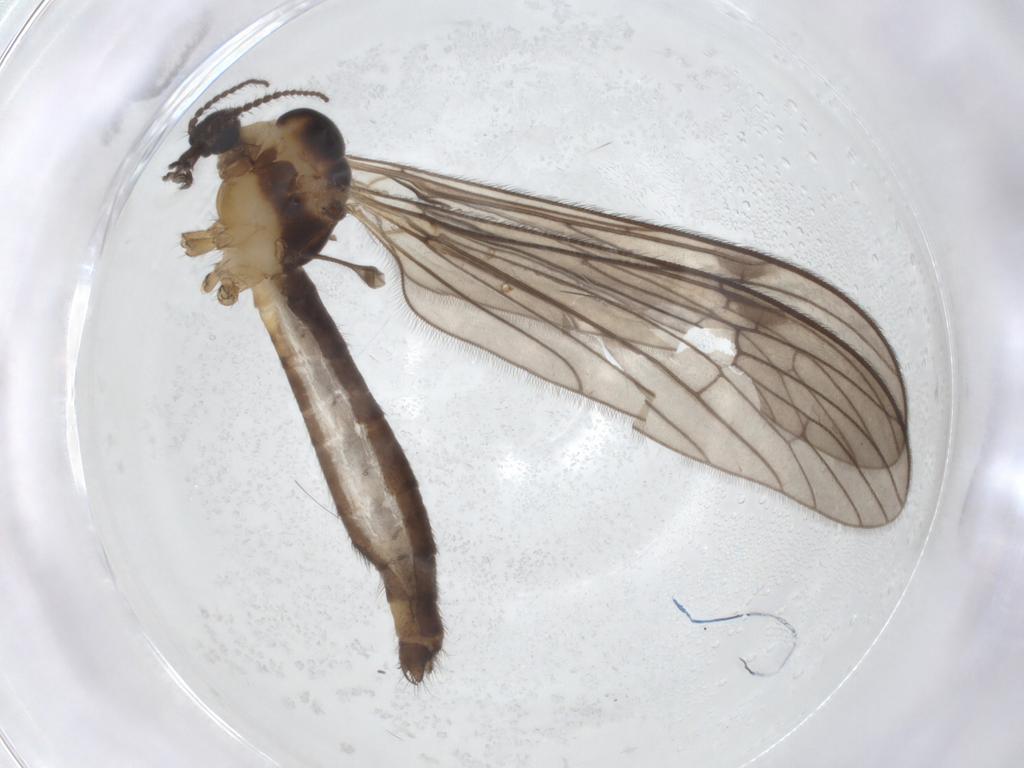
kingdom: Animalia
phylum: Arthropoda
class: Insecta
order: Diptera
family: Limoniidae
